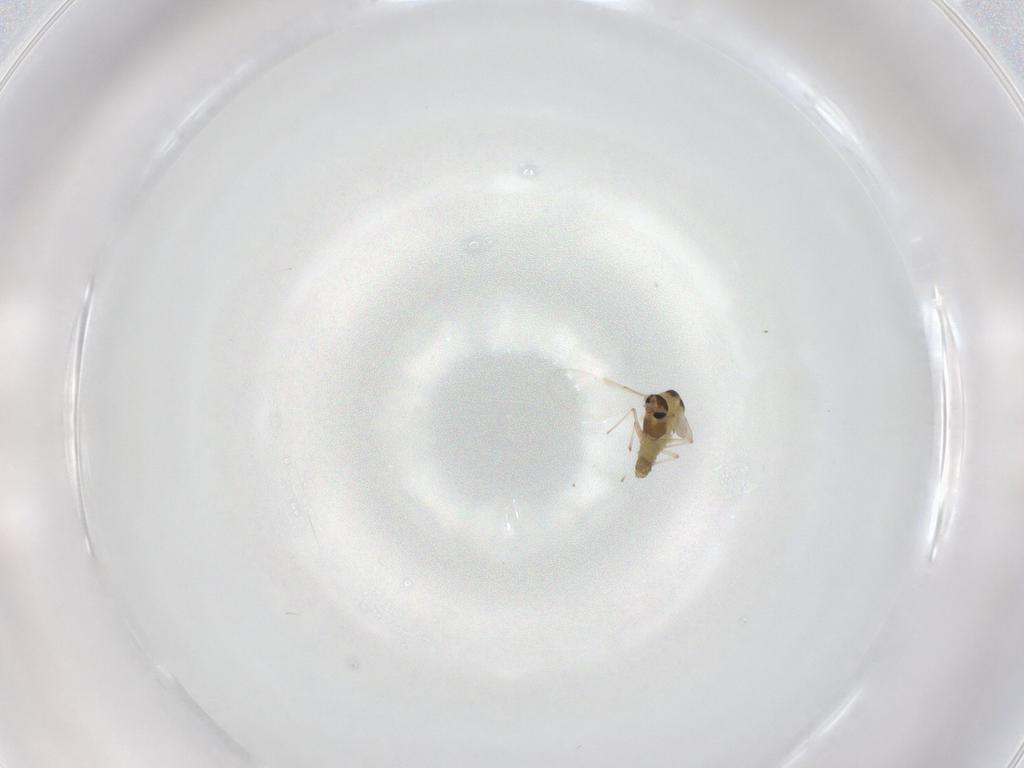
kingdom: Animalia
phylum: Arthropoda
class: Insecta
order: Diptera
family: Chironomidae
